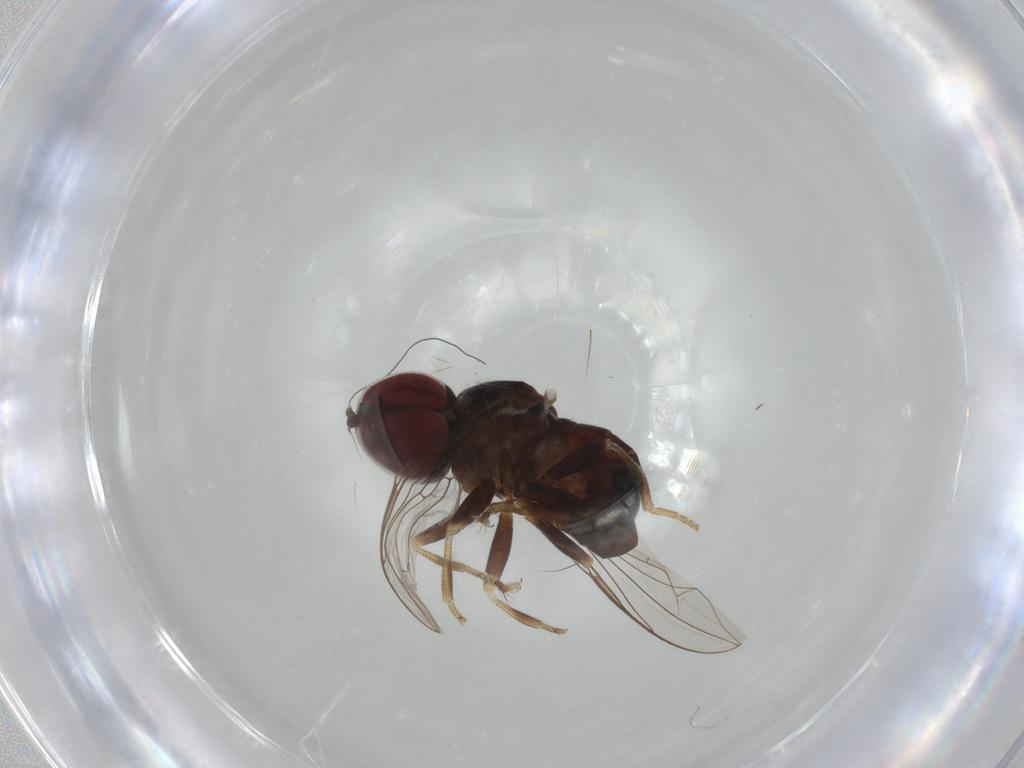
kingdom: Animalia
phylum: Arthropoda
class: Insecta
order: Diptera
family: Pipunculidae
